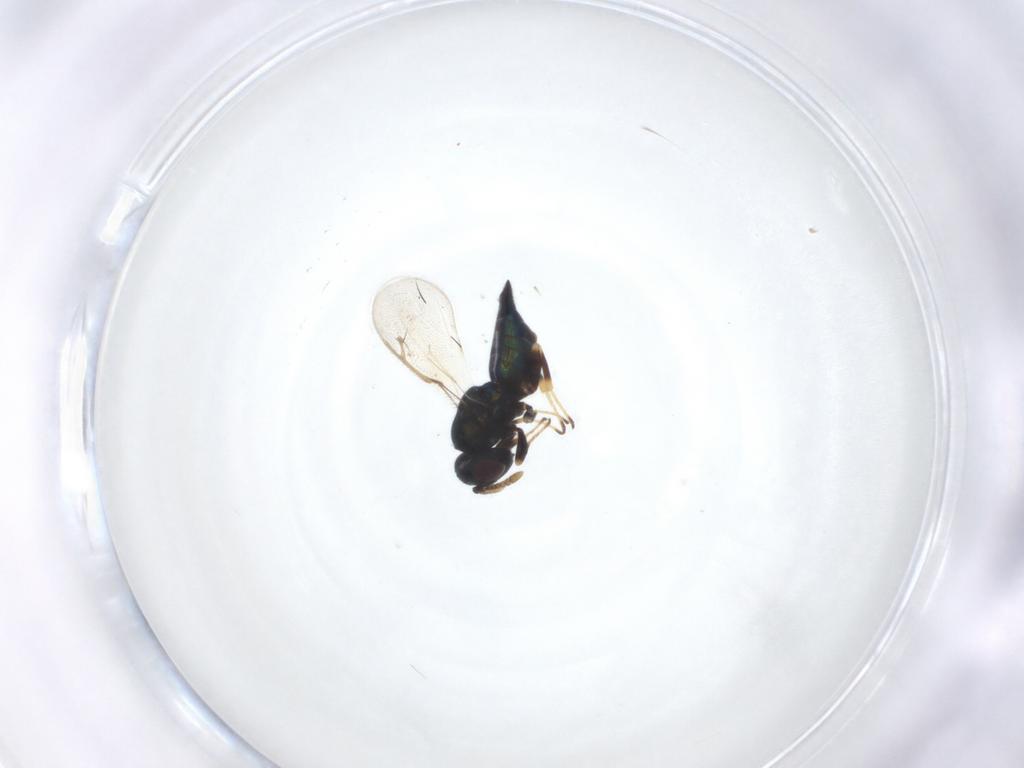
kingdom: Animalia
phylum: Arthropoda
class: Insecta
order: Hymenoptera
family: Pteromalidae
